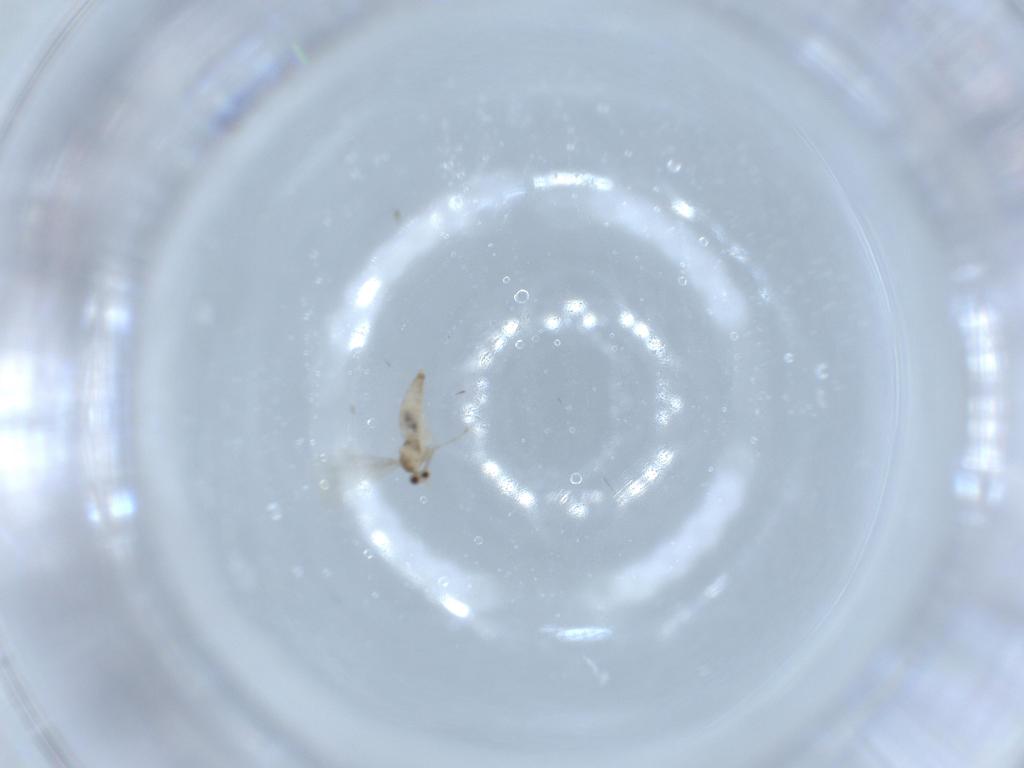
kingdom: Animalia
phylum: Arthropoda
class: Insecta
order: Diptera
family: Chironomidae
